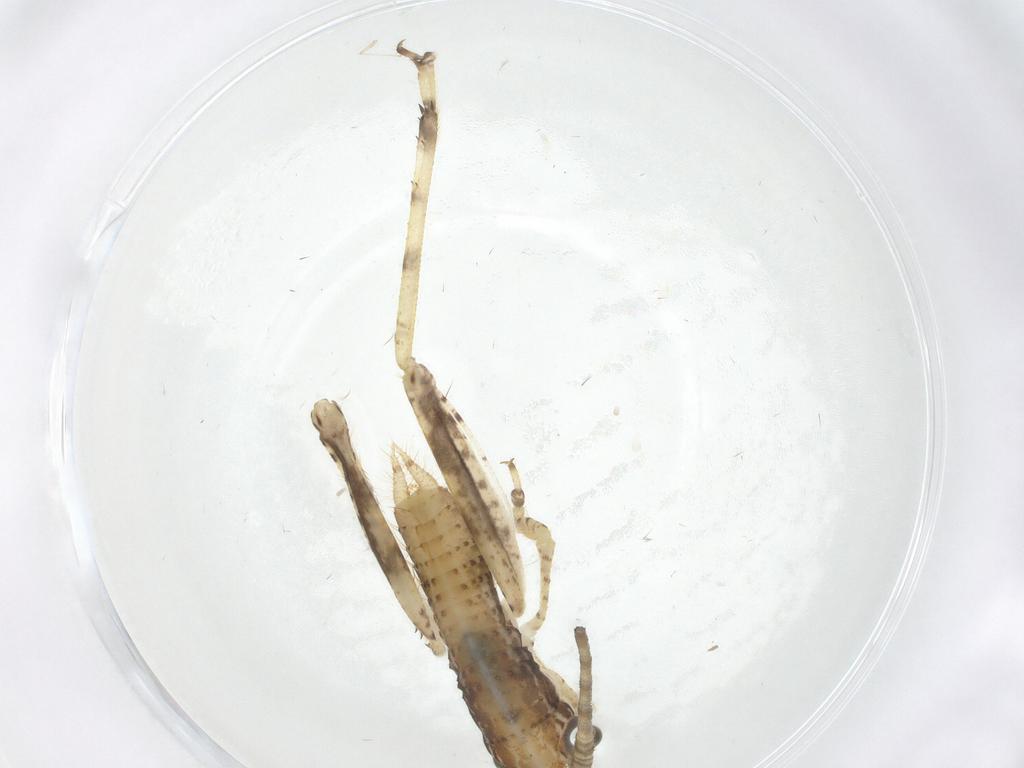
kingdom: Animalia
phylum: Arthropoda
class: Insecta
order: Orthoptera
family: Gryllidae
